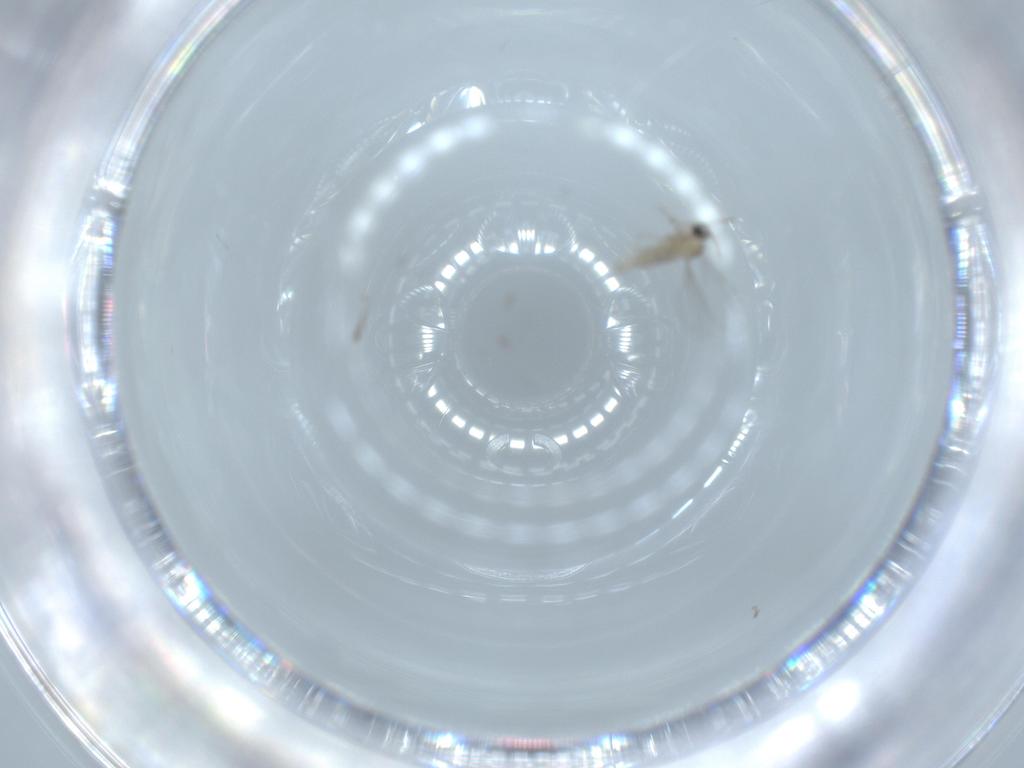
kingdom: Animalia
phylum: Arthropoda
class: Insecta
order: Diptera
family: Cecidomyiidae
